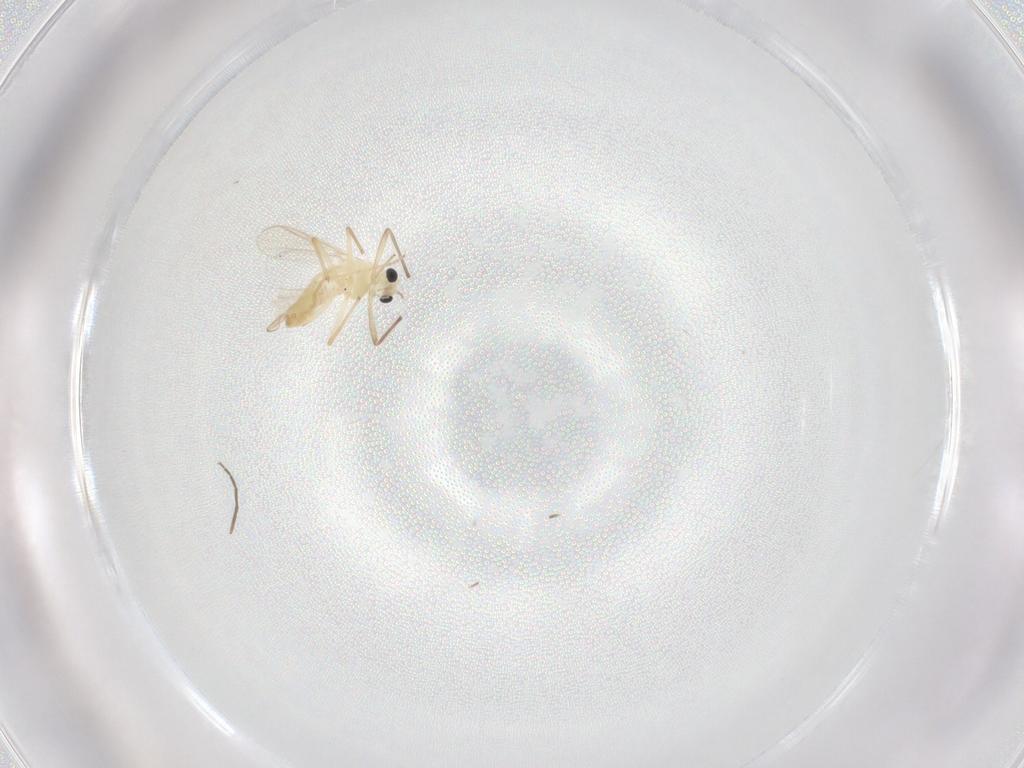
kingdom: Animalia
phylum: Arthropoda
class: Insecta
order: Diptera
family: Chironomidae
